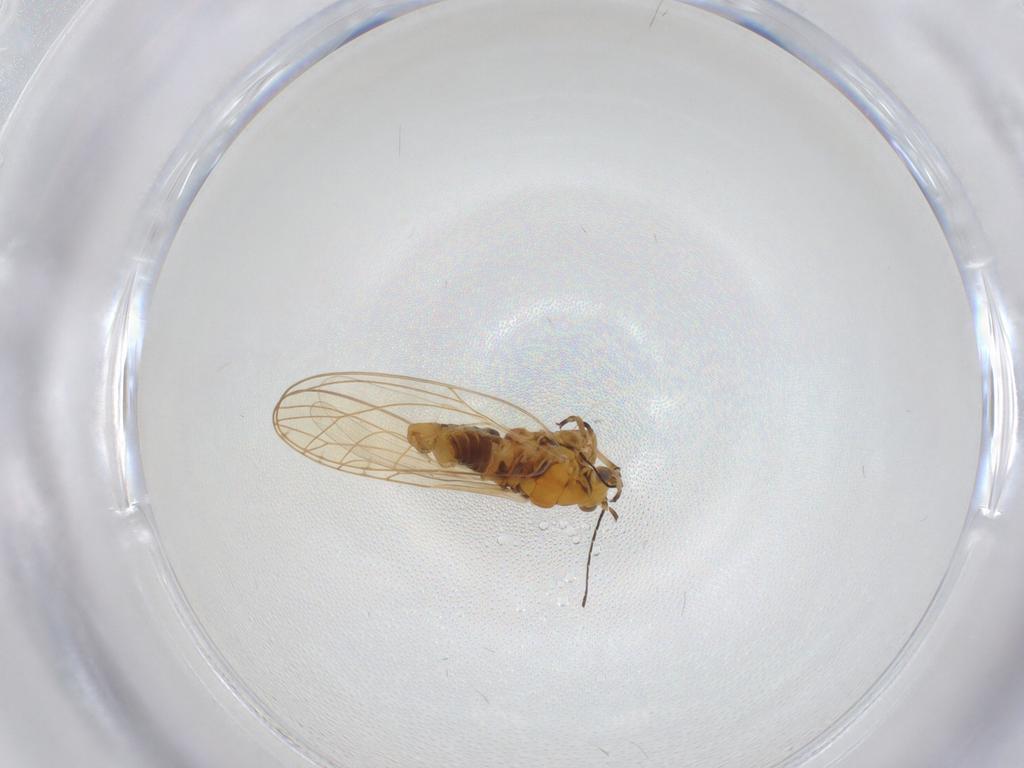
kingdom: Animalia
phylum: Arthropoda
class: Insecta
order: Hemiptera
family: Triozidae
